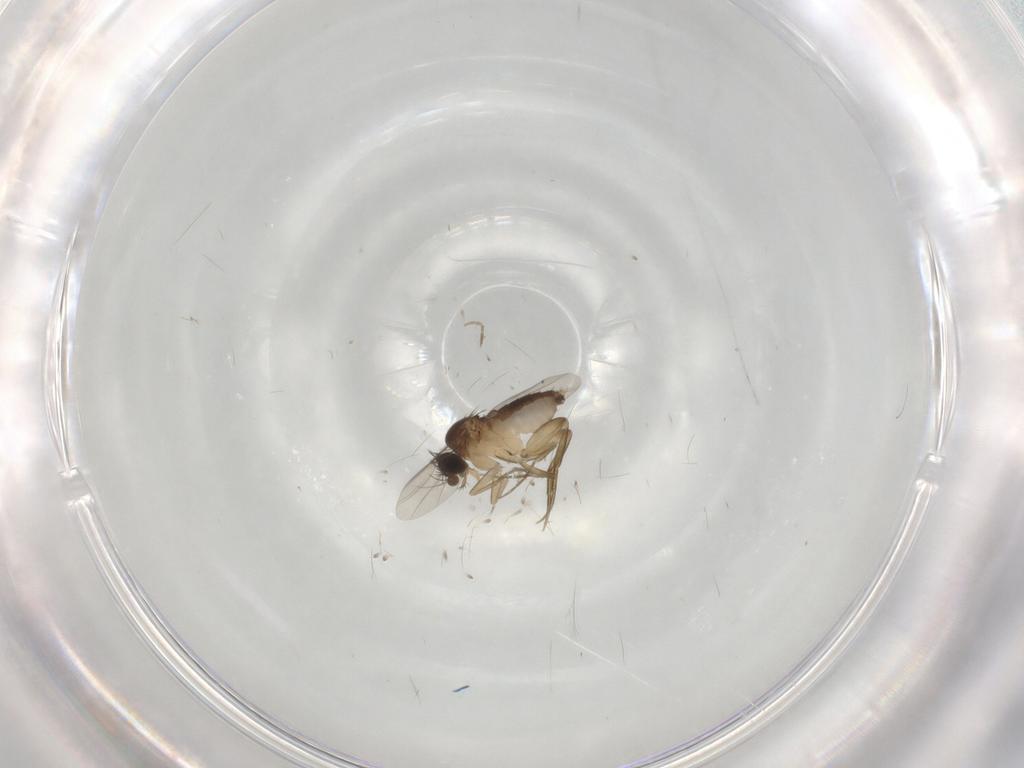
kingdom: Animalia
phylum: Arthropoda
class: Insecta
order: Diptera
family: Phoridae
